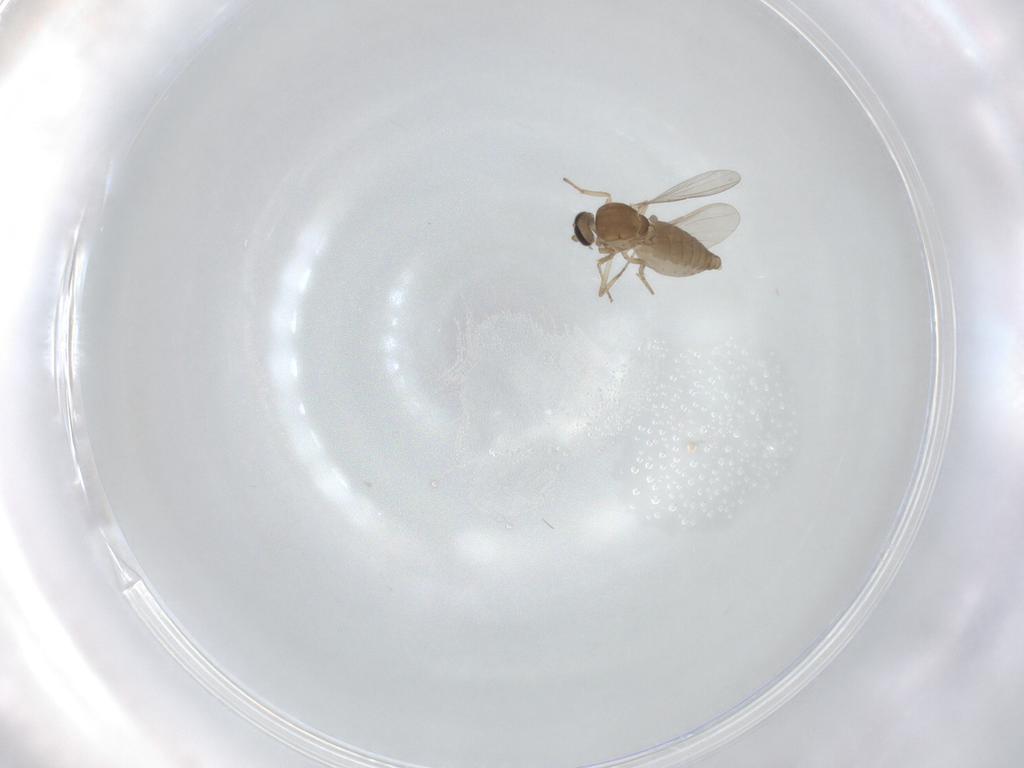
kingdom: Animalia
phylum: Arthropoda
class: Insecta
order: Diptera
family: Ceratopogonidae
